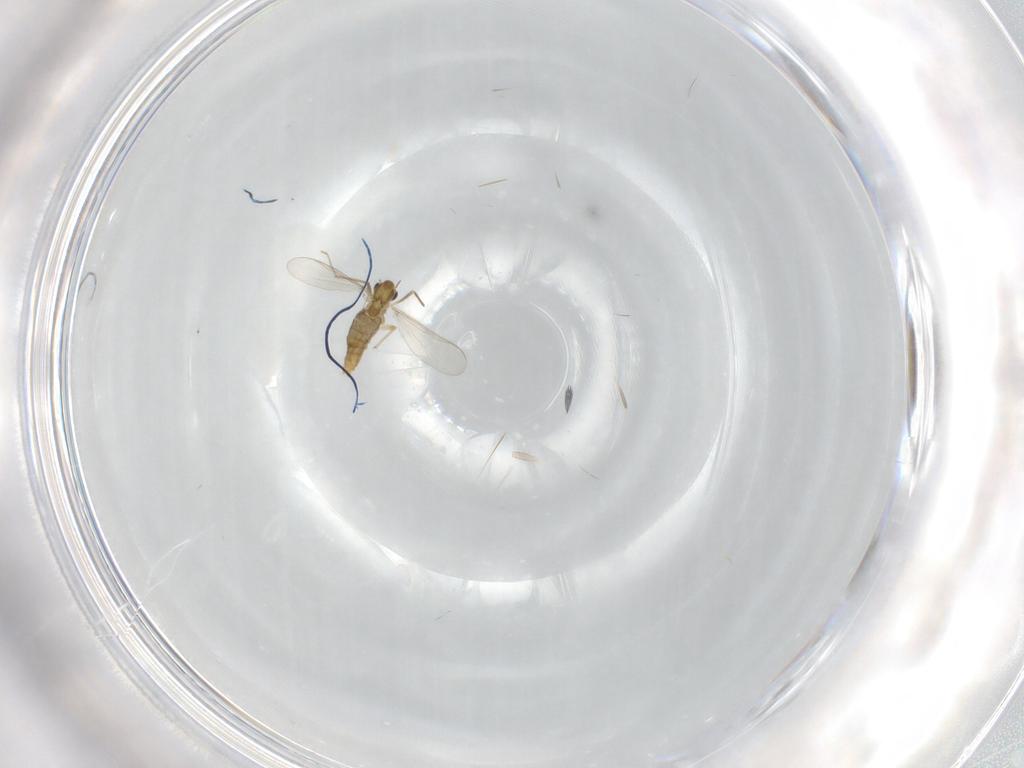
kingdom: Animalia
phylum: Arthropoda
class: Insecta
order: Diptera
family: Chironomidae
